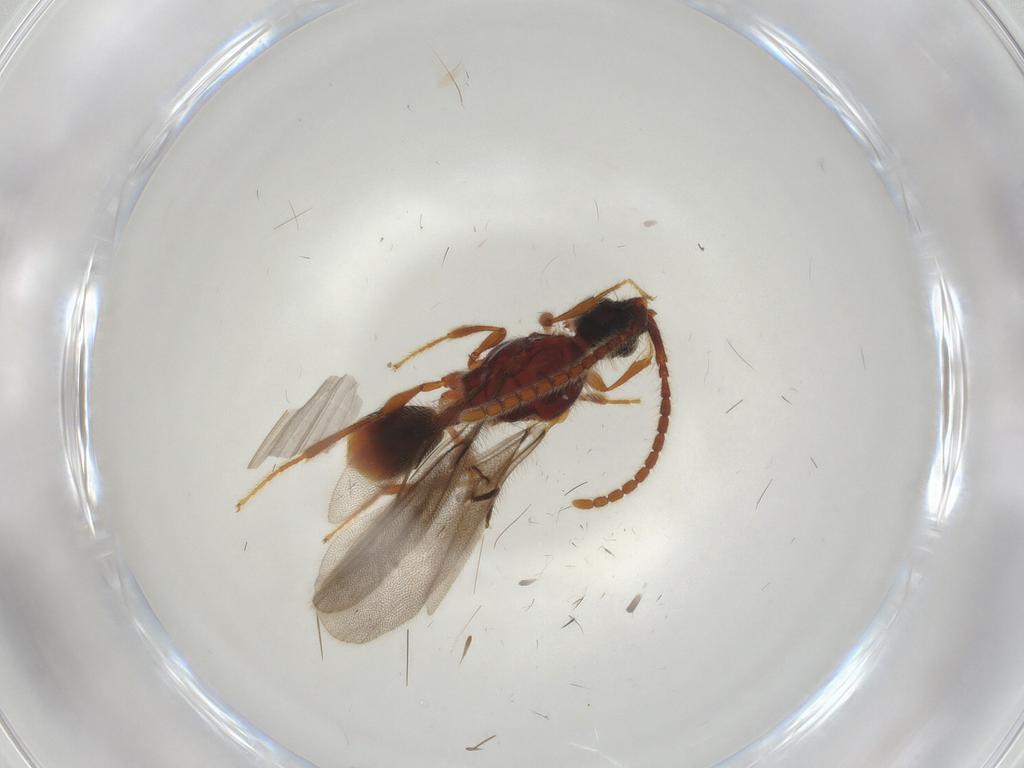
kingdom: Animalia
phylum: Arthropoda
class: Insecta
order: Hymenoptera
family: Diapriidae
